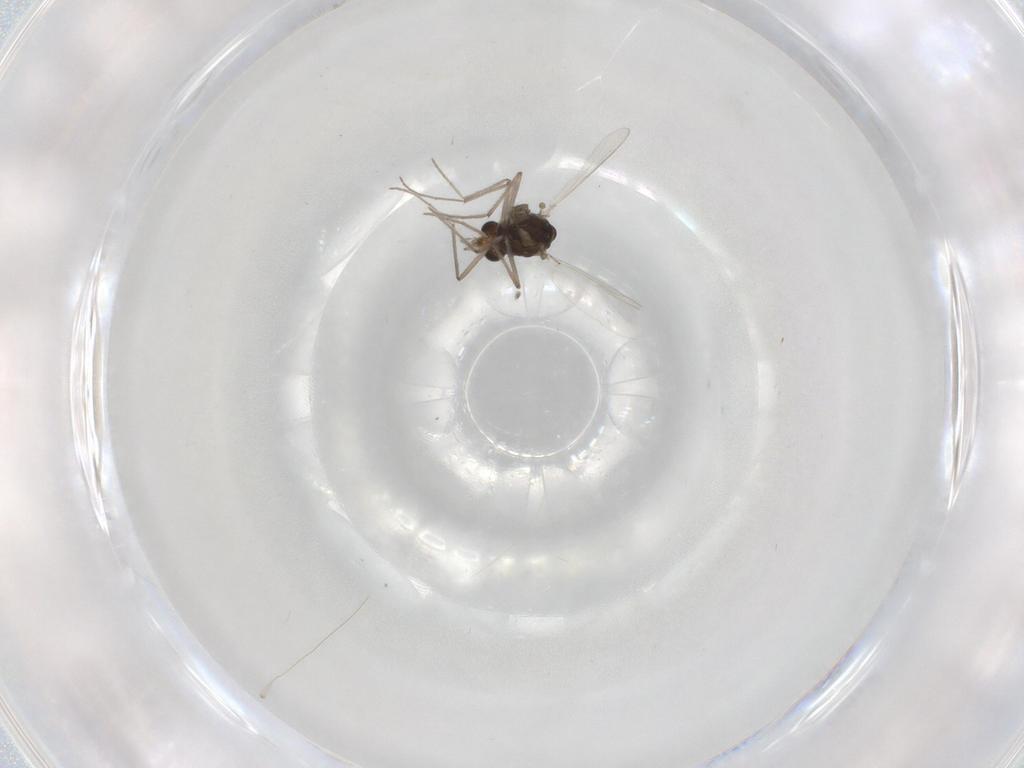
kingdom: Animalia
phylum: Arthropoda
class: Insecta
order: Diptera
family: Chironomidae
